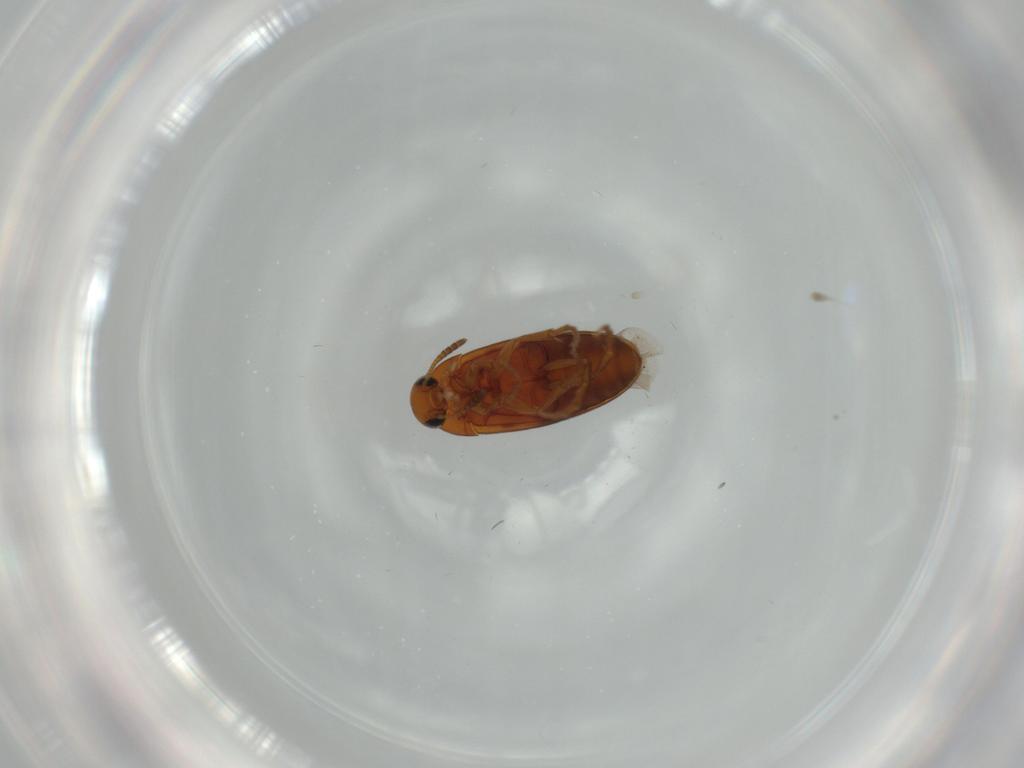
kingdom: Animalia
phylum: Arthropoda
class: Insecta
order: Coleoptera
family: Scraptiidae
